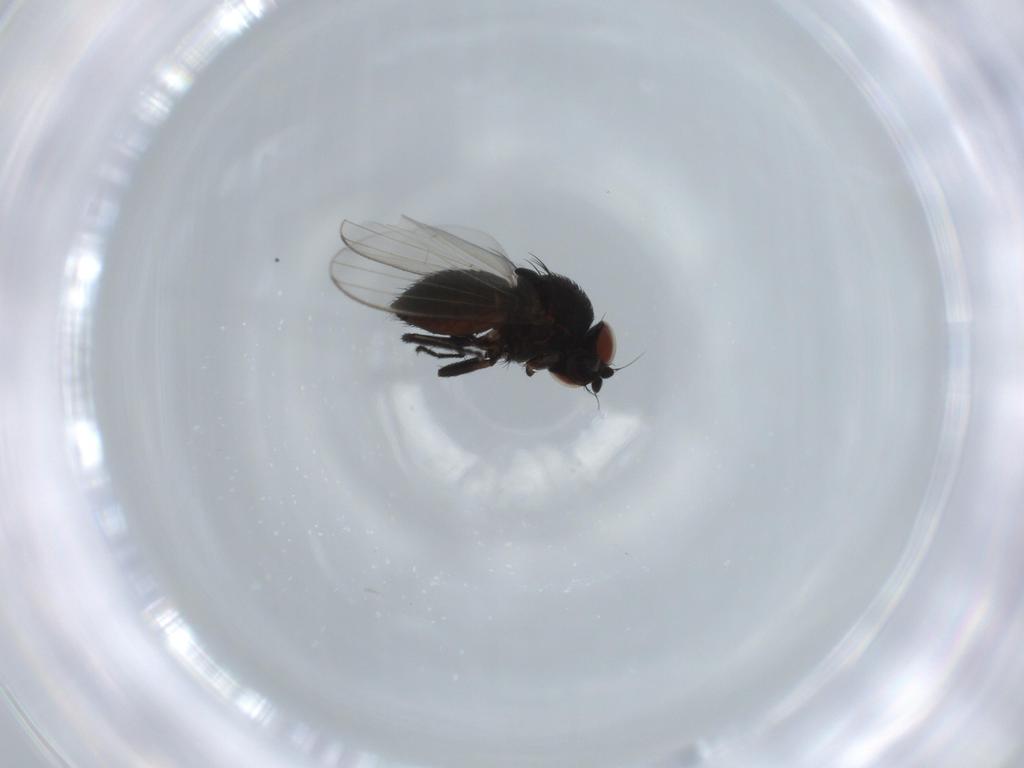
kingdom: Animalia
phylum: Arthropoda
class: Insecta
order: Diptera
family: Milichiidae
